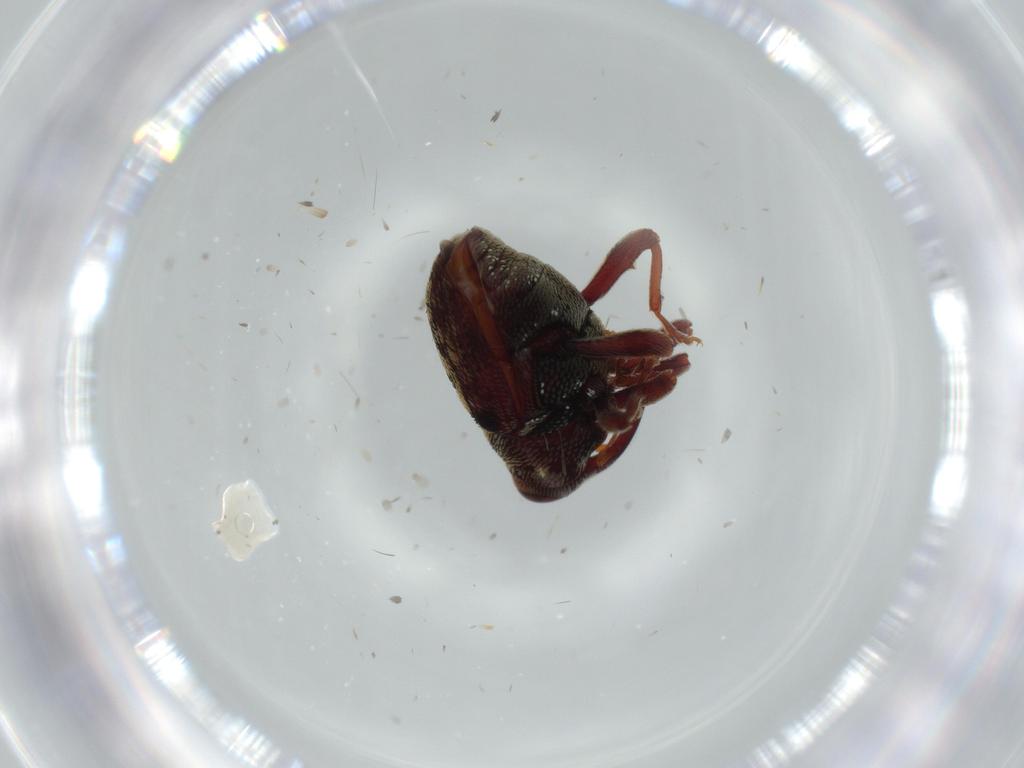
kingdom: Animalia
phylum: Arthropoda
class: Insecta
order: Coleoptera
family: Curculionidae
